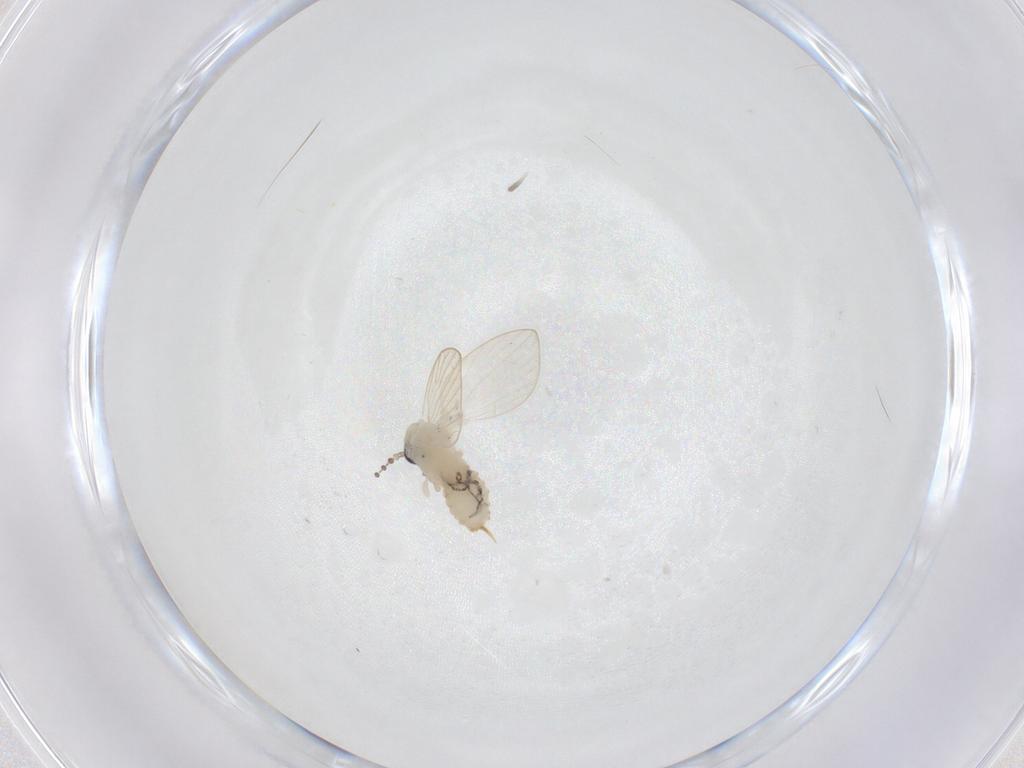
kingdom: Animalia
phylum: Arthropoda
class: Insecta
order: Diptera
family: Psychodidae
